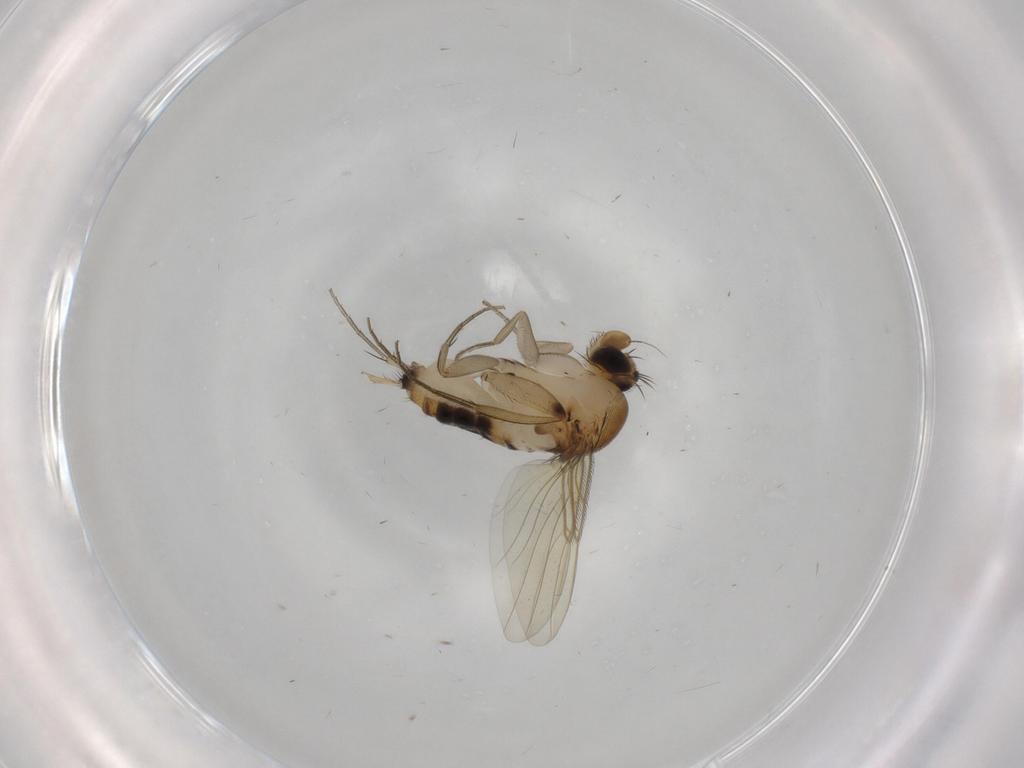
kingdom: Animalia
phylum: Arthropoda
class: Insecta
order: Diptera
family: Phoridae
